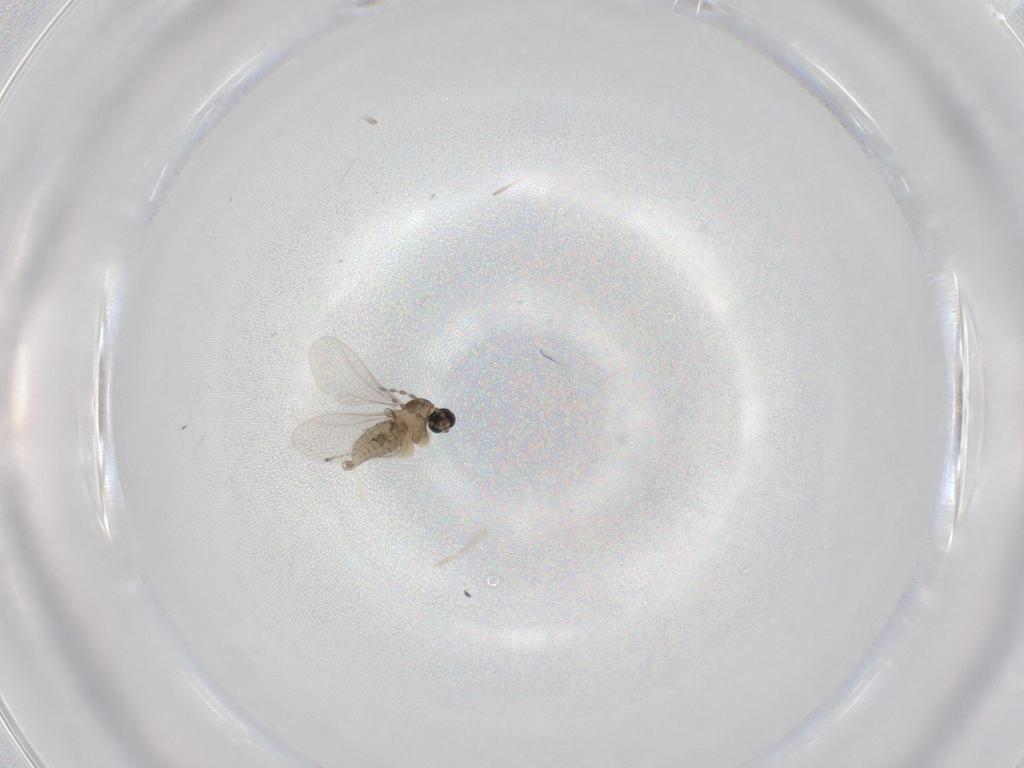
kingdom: Animalia
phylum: Arthropoda
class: Insecta
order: Diptera
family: Cecidomyiidae
